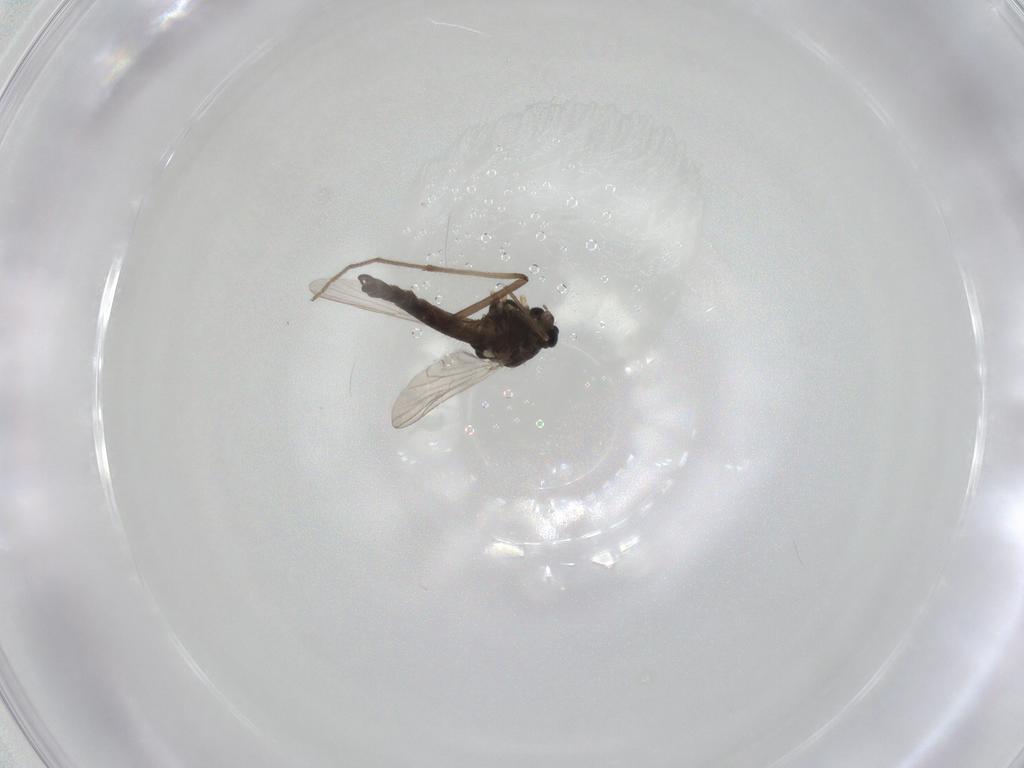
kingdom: Animalia
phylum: Arthropoda
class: Insecta
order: Diptera
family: Chironomidae
